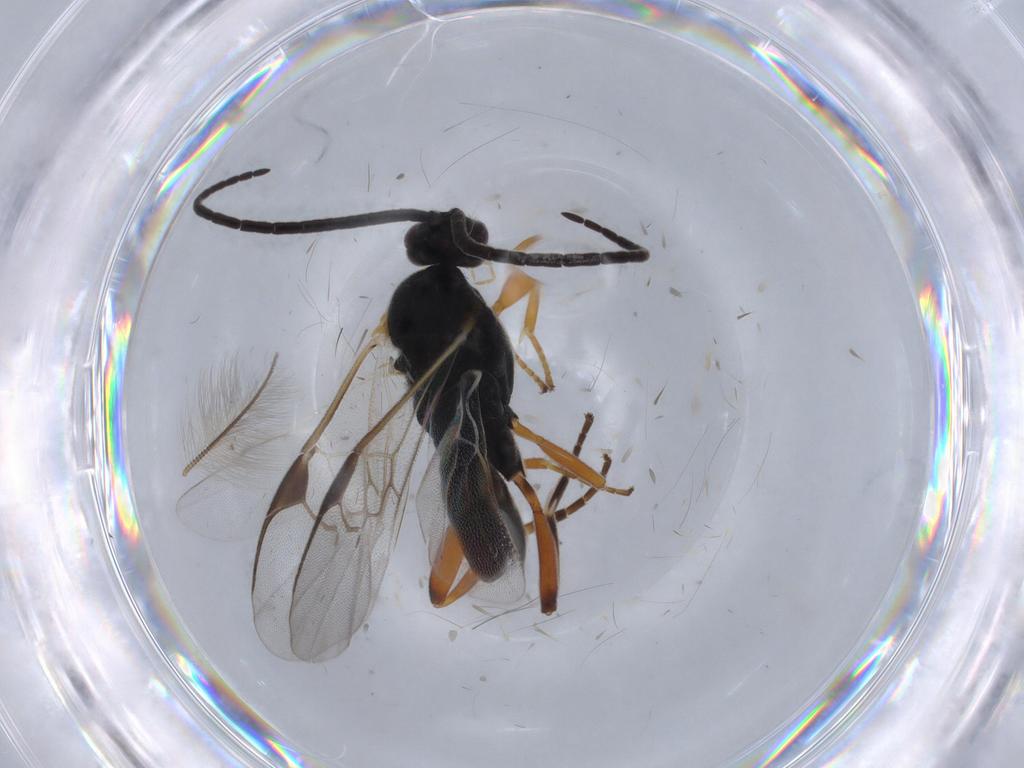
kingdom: Animalia
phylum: Arthropoda
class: Insecta
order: Hymenoptera
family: Braconidae
